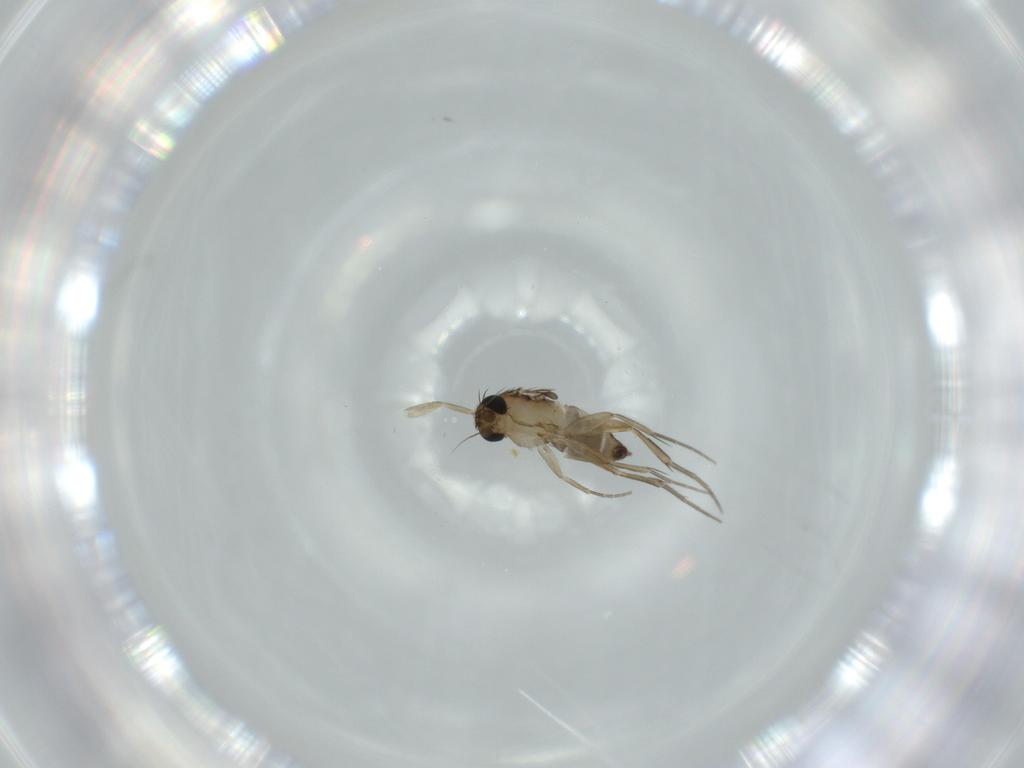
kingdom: Animalia
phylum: Arthropoda
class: Insecta
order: Diptera
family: Phoridae
